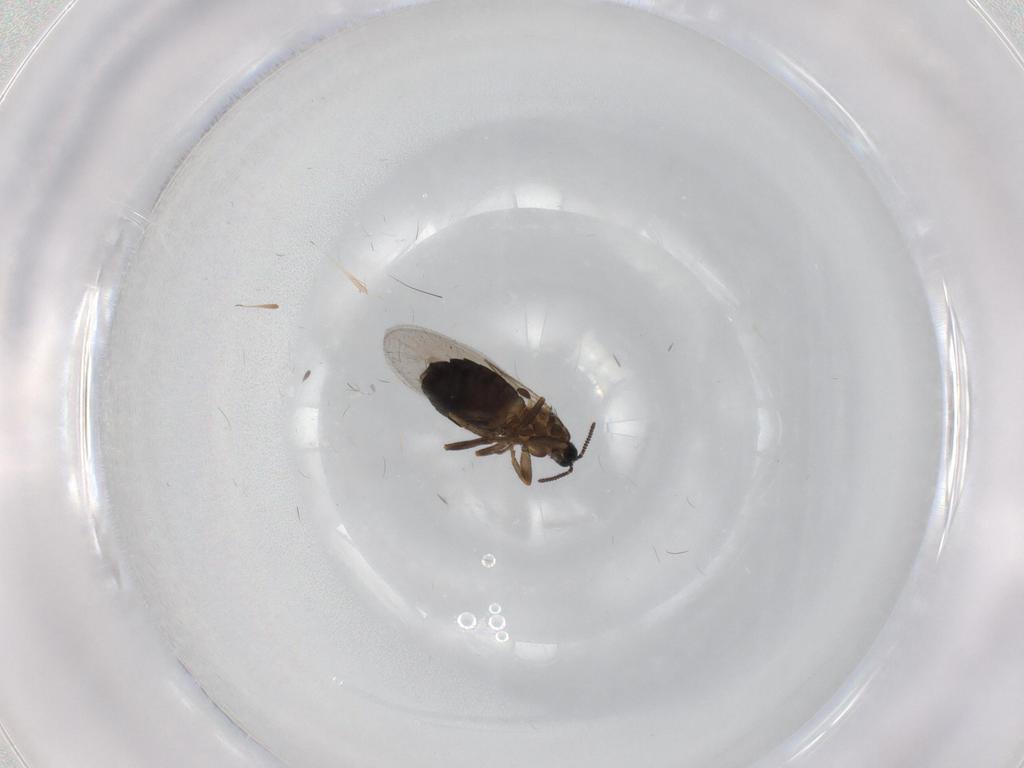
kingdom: Animalia
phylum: Arthropoda
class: Insecta
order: Diptera
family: Scatopsidae
